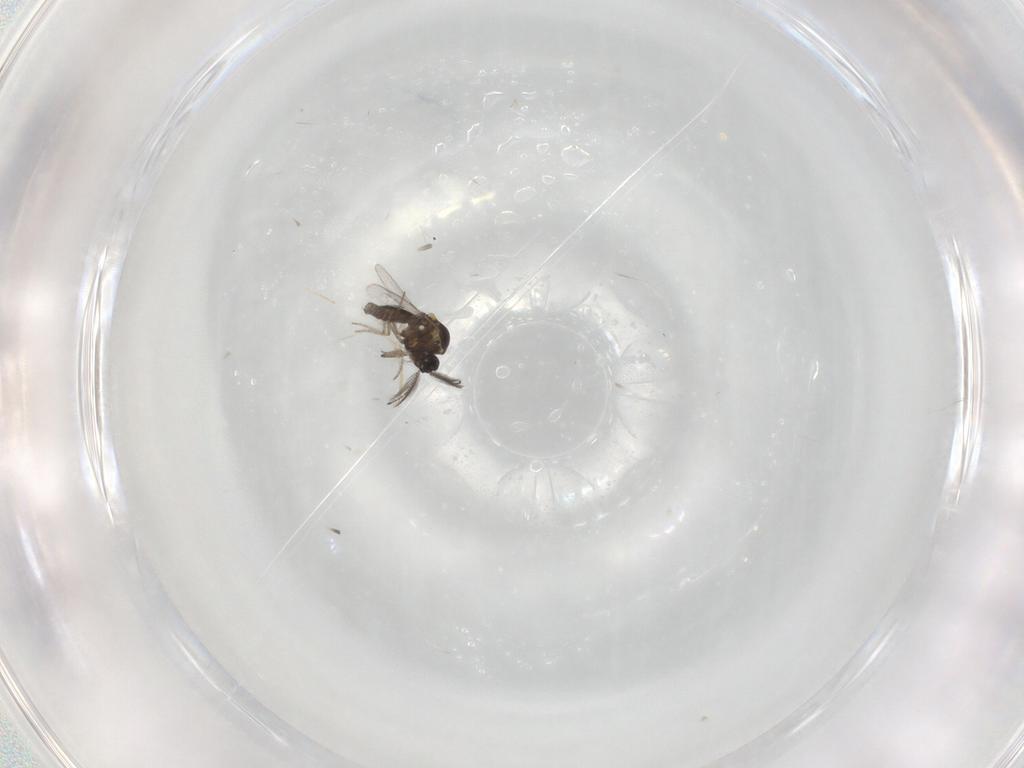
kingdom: Animalia
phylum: Arthropoda
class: Insecta
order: Diptera
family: Ceratopogonidae
